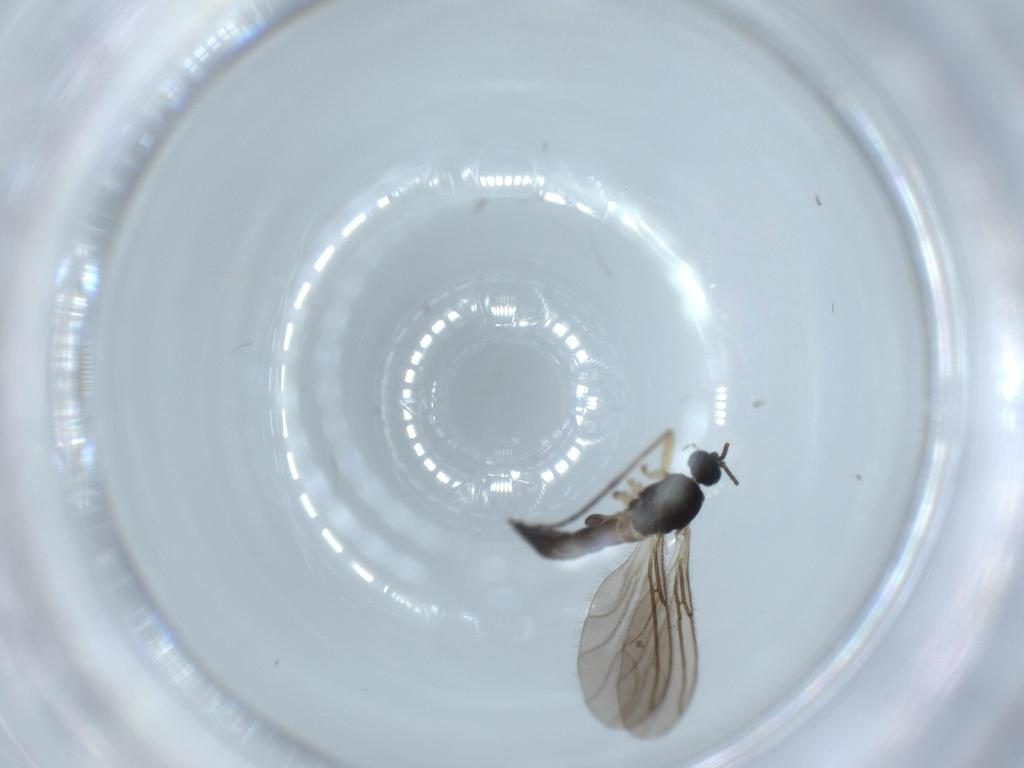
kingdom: Animalia
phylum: Arthropoda
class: Insecta
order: Diptera
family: Sciaridae
